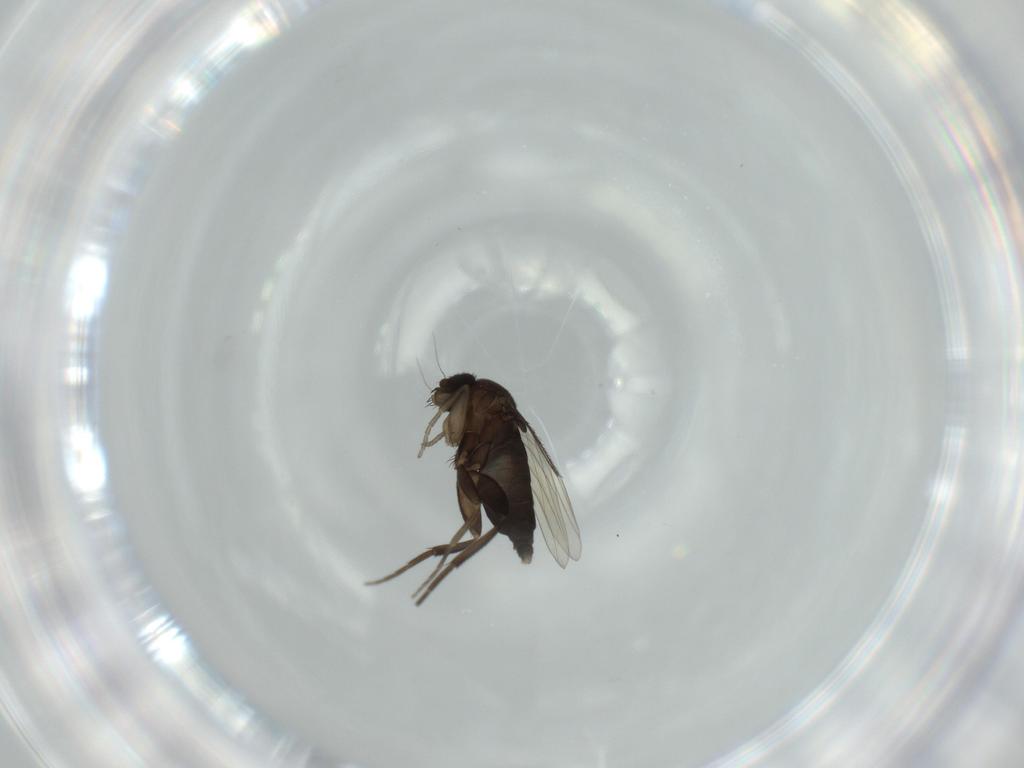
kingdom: Animalia
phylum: Arthropoda
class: Insecta
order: Diptera
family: Phoridae
